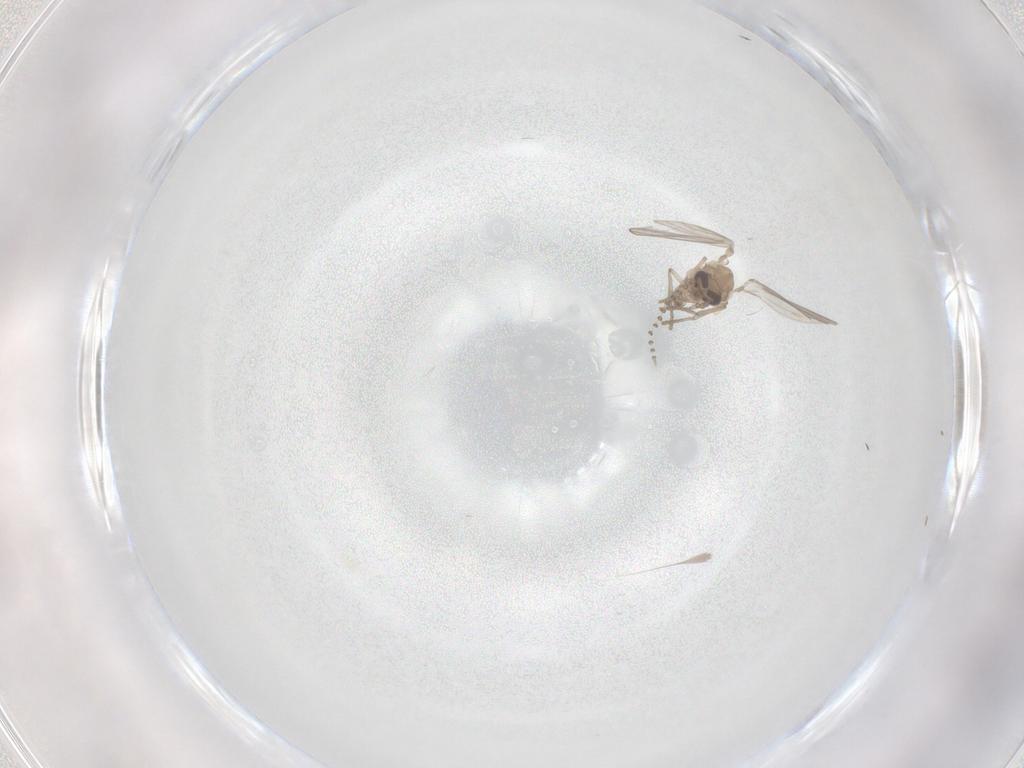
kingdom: Animalia
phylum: Arthropoda
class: Insecta
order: Diptera
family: Psychodidae
